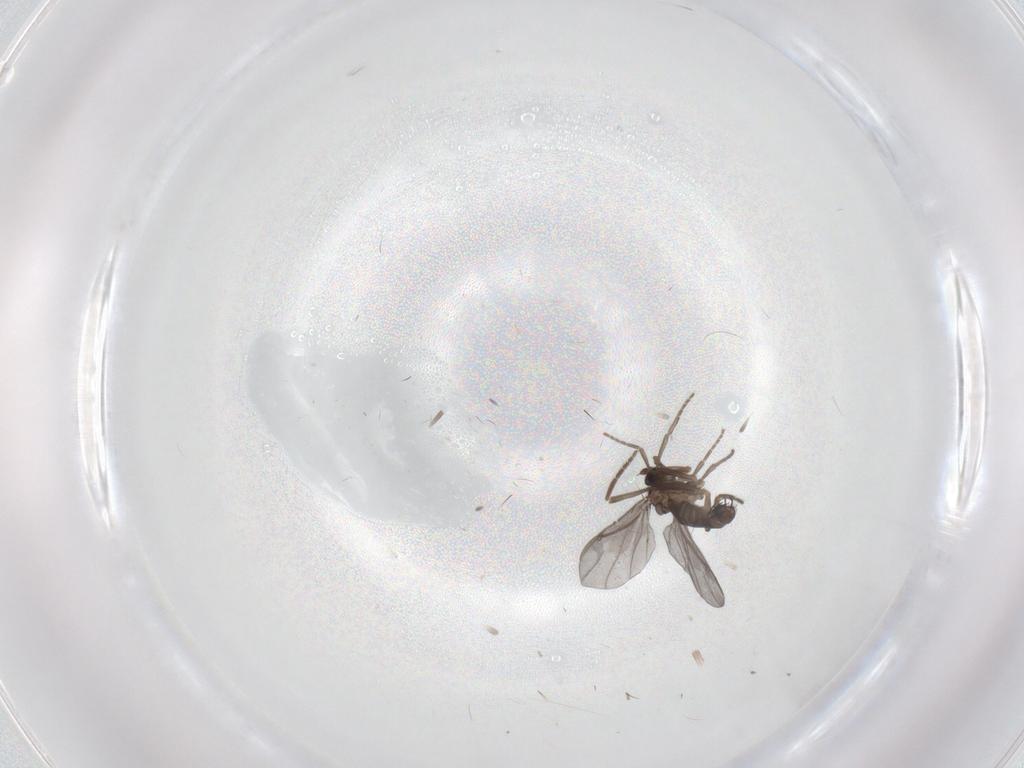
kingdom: Animalia
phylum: Arthropoda
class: Insecta
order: Diptera
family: Phoridae
